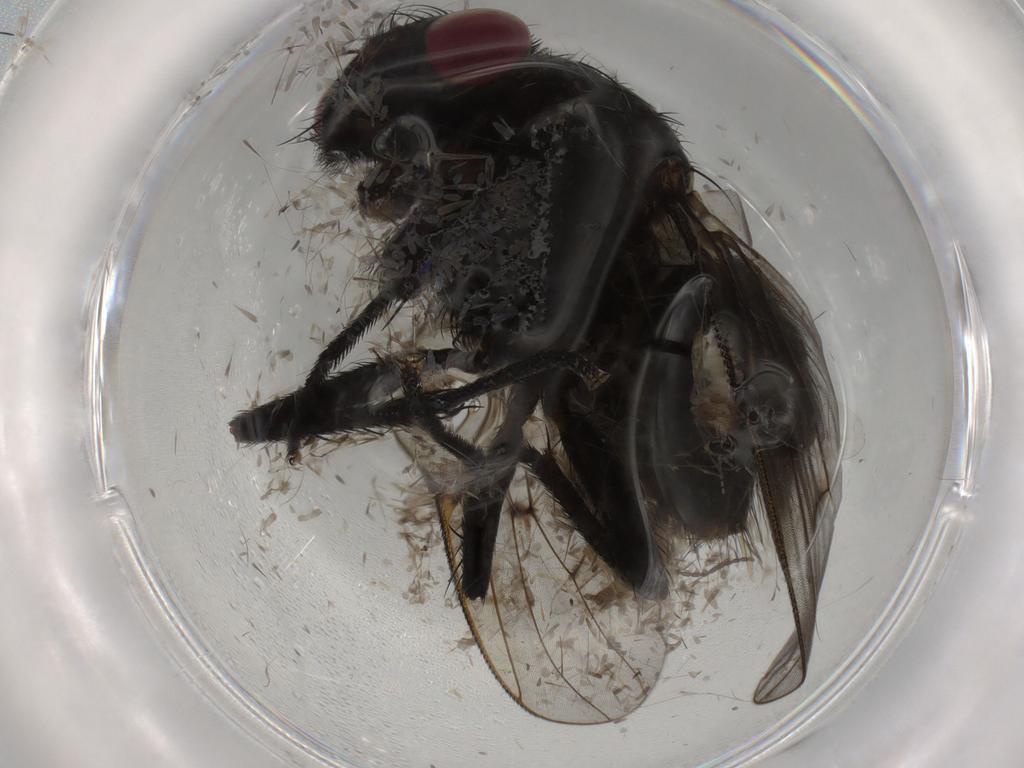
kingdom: Animalia
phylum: Arthropoda
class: Insecta
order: Diptera
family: Muscidae
